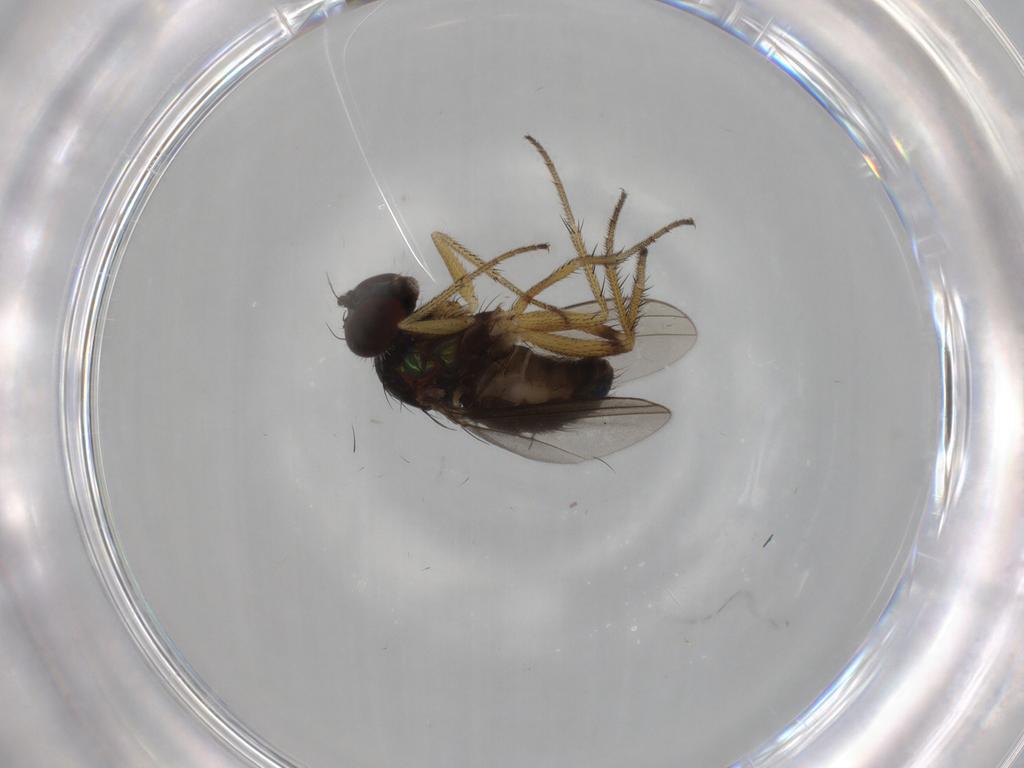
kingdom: Animalia
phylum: Arthropoda
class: Insecta
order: Diptera
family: Dolichopodidae
